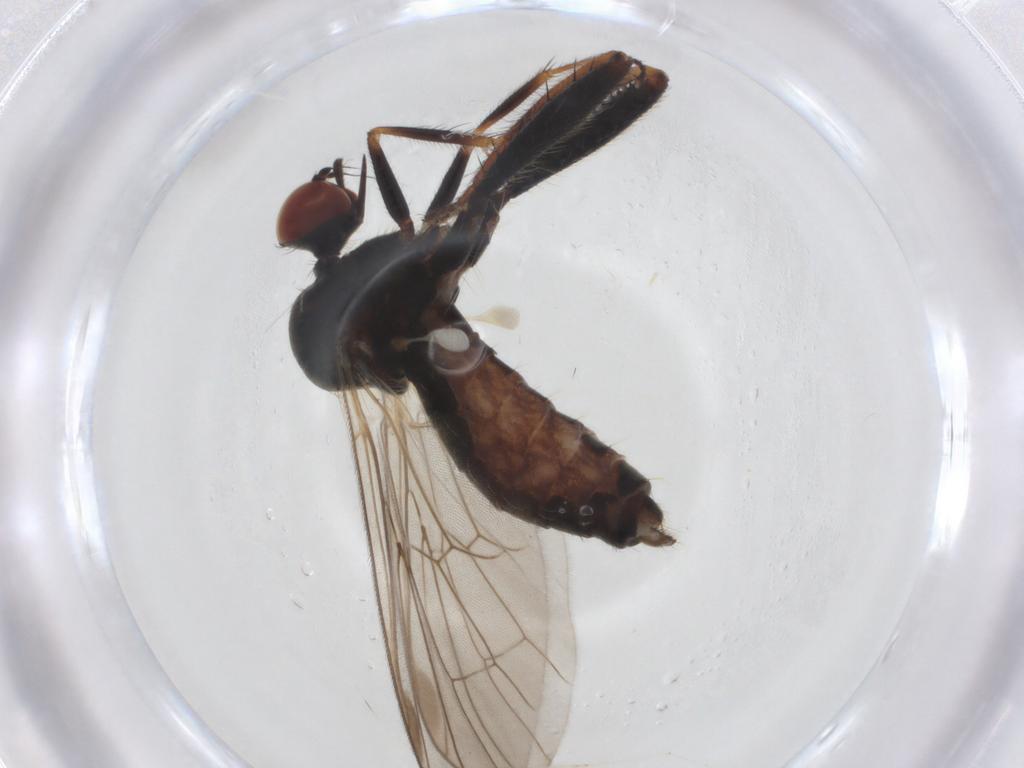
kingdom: Animalia
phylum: Arthropoda
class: Insecta
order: Diptera
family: Hybotidae
